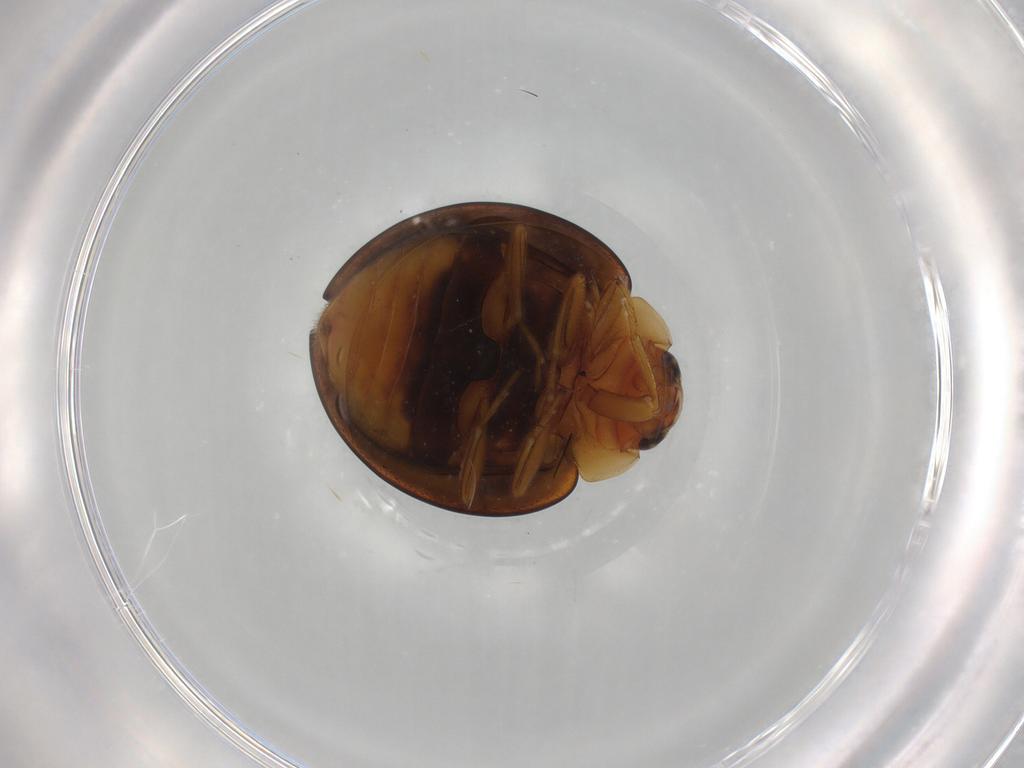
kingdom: Animalia
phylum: Arthropoda
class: Insecta
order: Coleoptera
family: Coccinellidae
